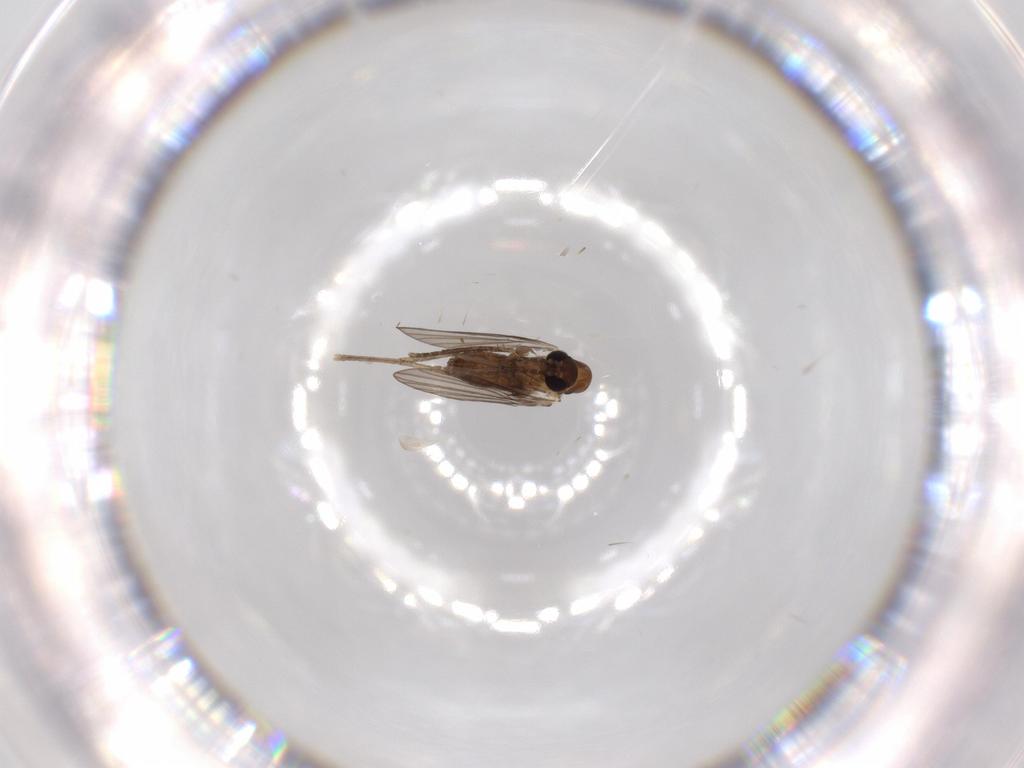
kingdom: Animalia
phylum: Arthropoda
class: Insecta
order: Diptera
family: Psychodidae
